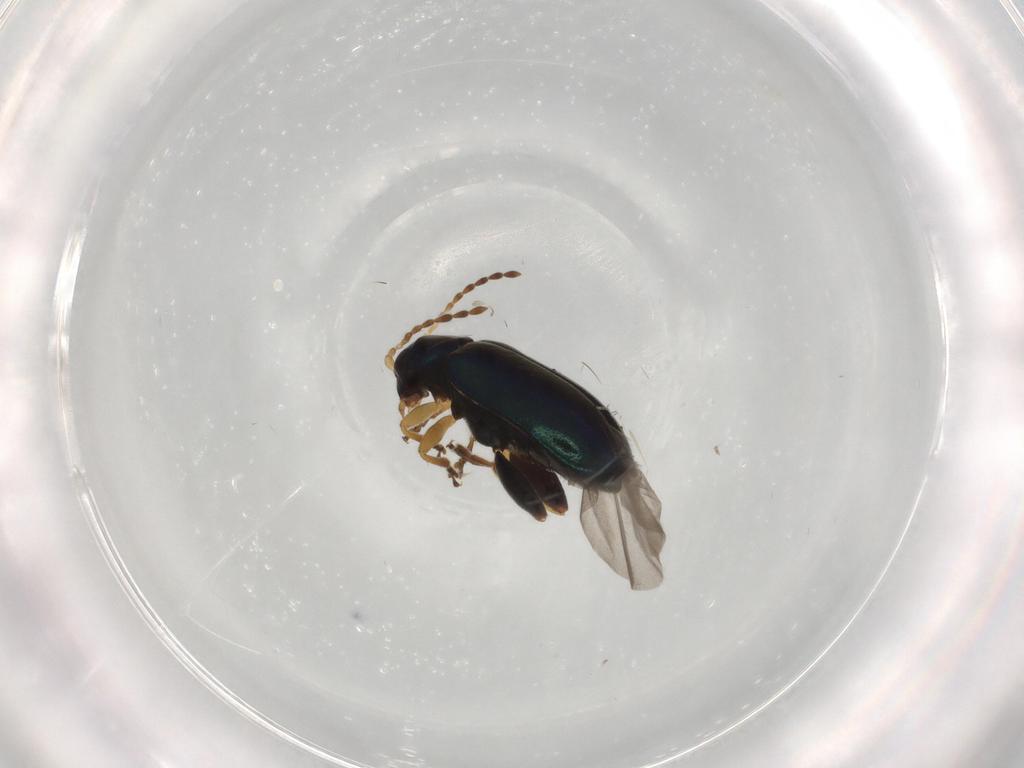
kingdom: Animalia
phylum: Arthropoda
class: Insecta
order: Coleoptera
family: Chrysomelidae
